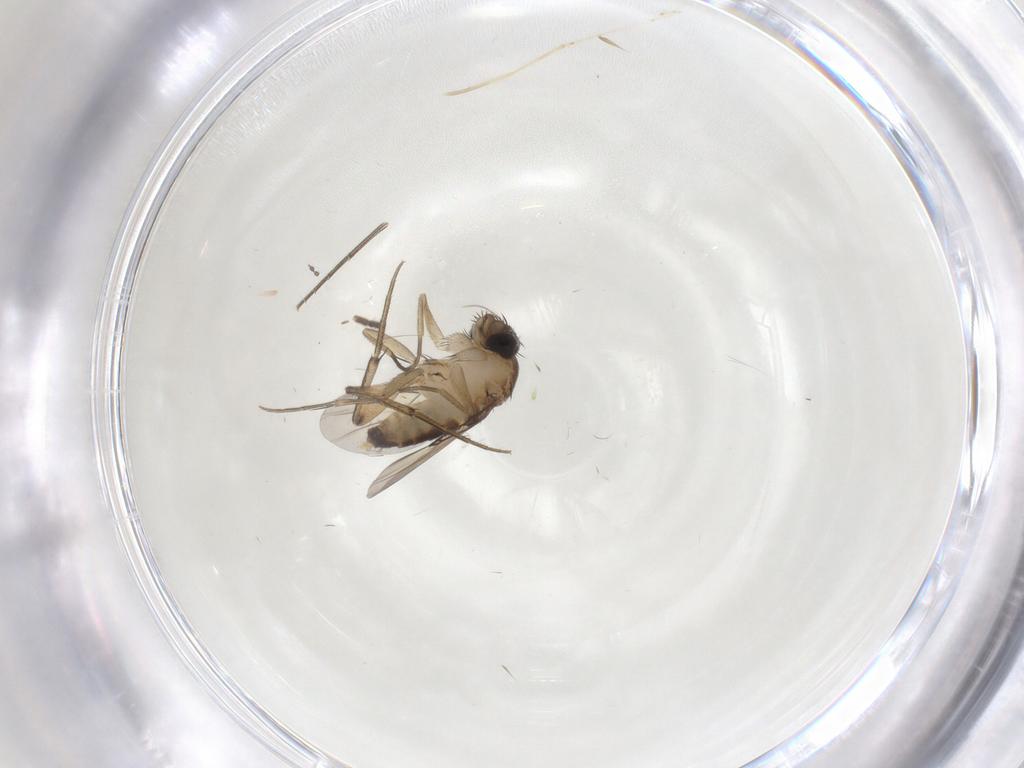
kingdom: Animalia
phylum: Arthropoda
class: Insecta
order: Diptera
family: Phoridae
